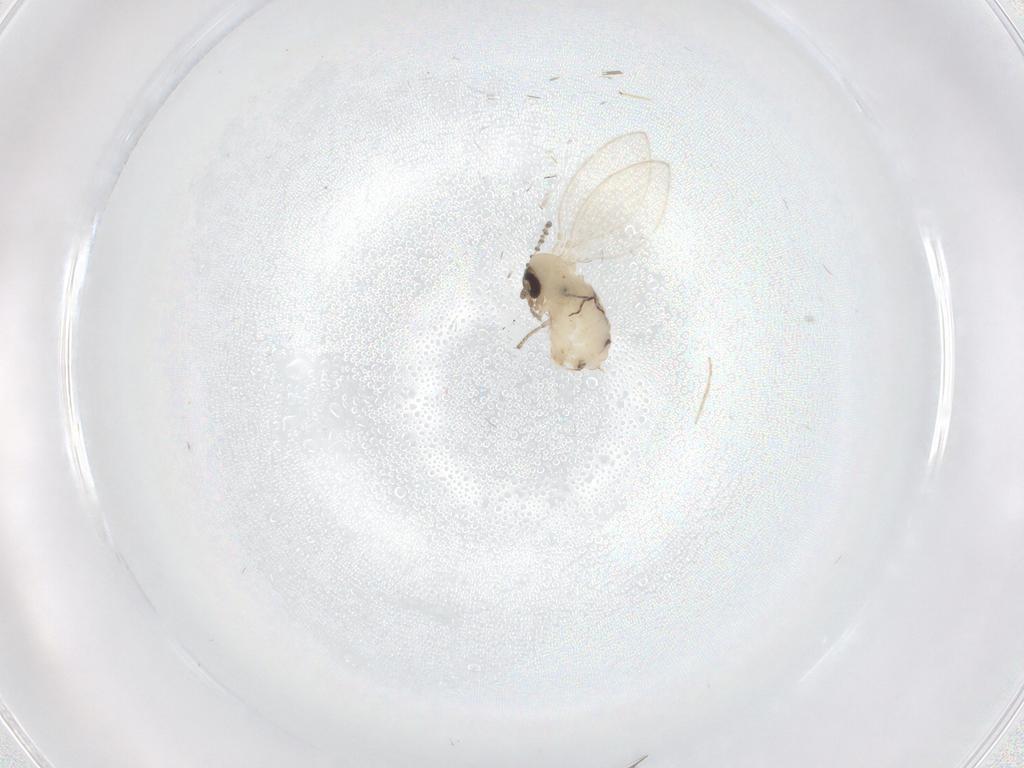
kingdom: Animalia
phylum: Arthropoda
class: Insecta
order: Diptera
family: Psychodidae
